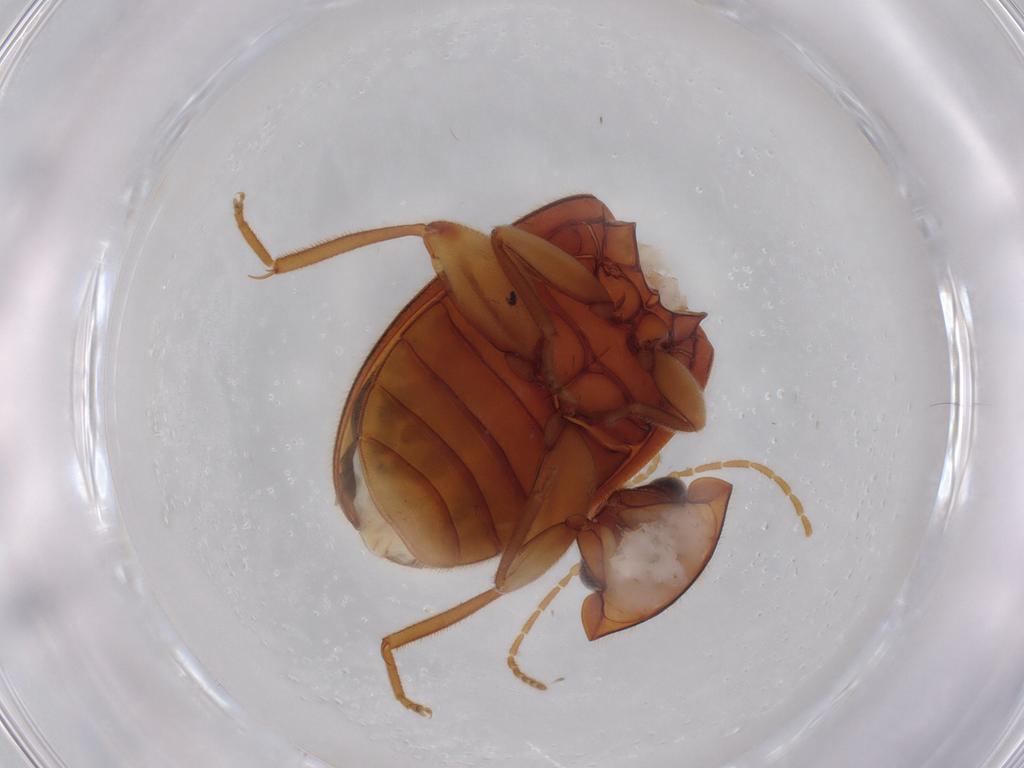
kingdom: Animalia
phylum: Arthropoda
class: Insecta
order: Coleoptera
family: Scirtidae
